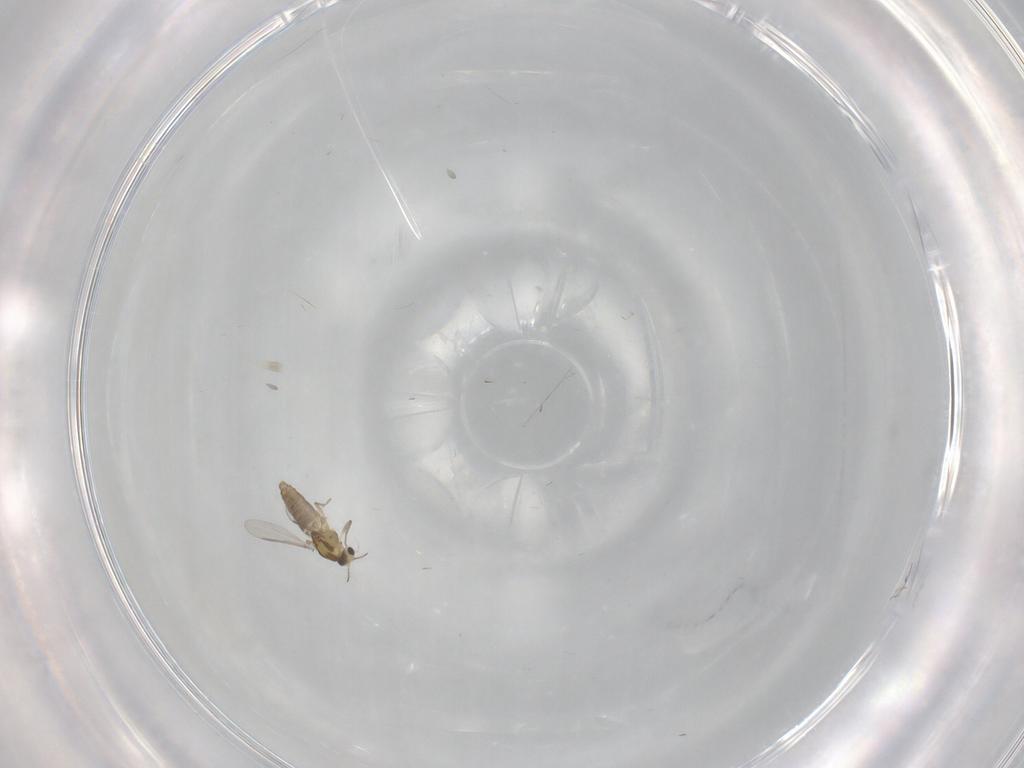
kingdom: Animalia
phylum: Arthropoda
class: Insecta
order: Diptera
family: Chironomidae
